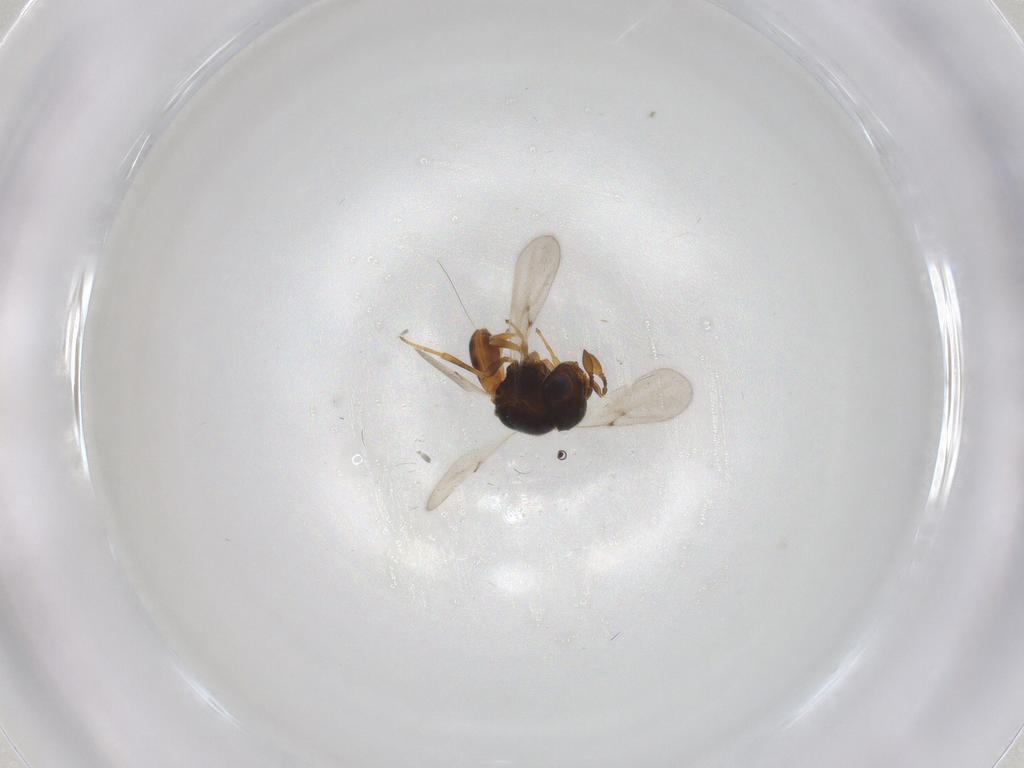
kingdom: Animalia
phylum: Arthropoda
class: Insecta
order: Hymenoptera
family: Scelionidae
